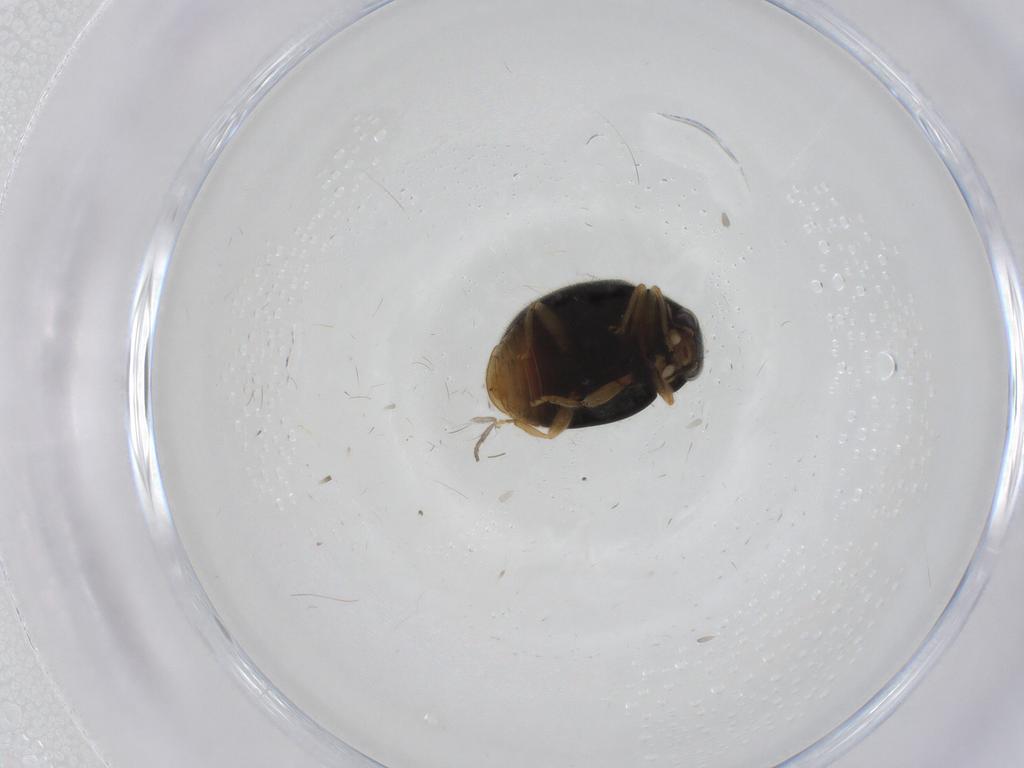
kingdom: Animalia
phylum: Arthropoda
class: Insecta
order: Coleoptera
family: Coccinellidae
